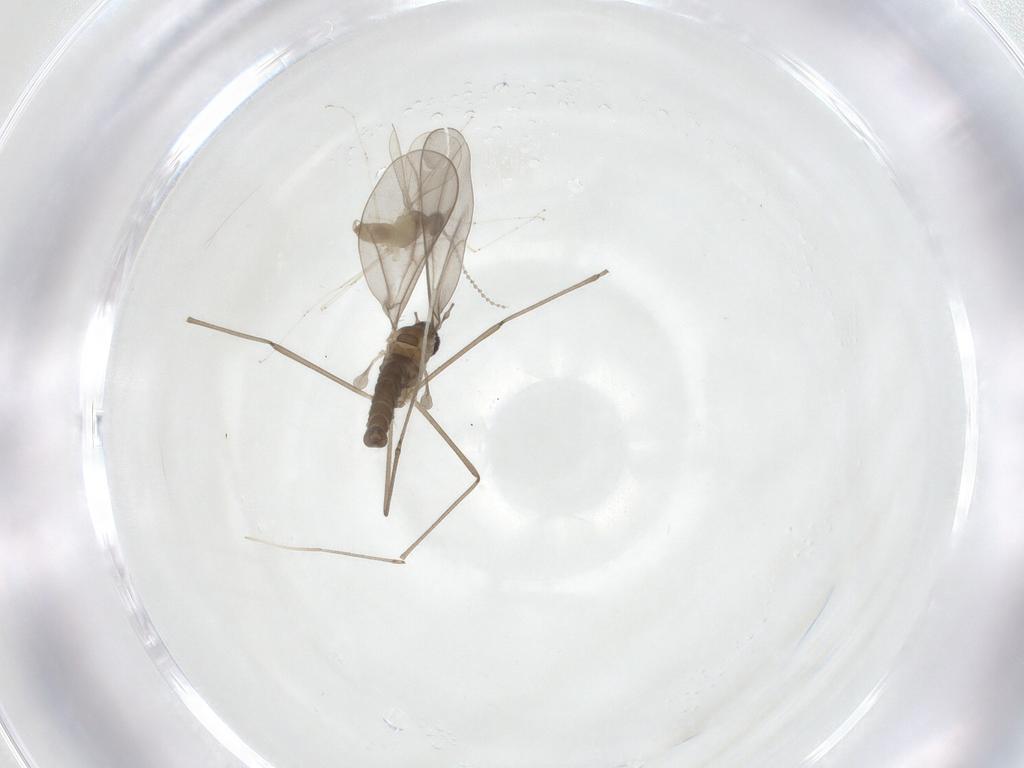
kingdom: Animalia
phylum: Arthropoda
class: Insecta
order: Diptera
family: Cecidomyiidae
